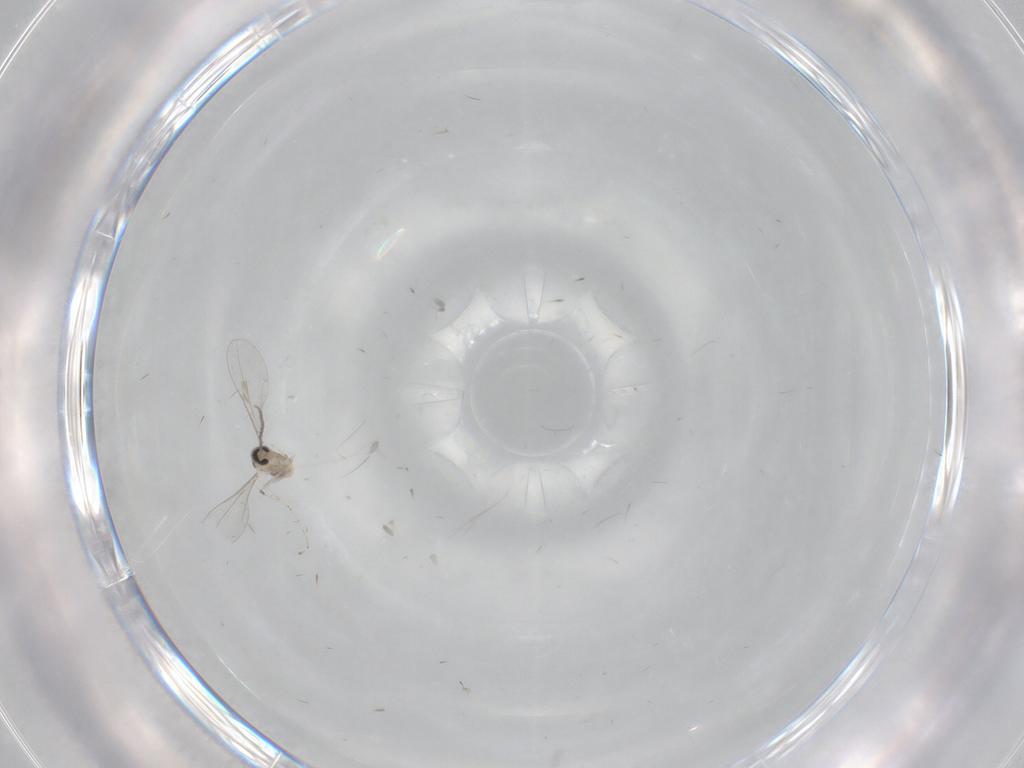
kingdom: Animalia
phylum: Arthropoda
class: Insecta
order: Diptera
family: Cecidomyiidae
